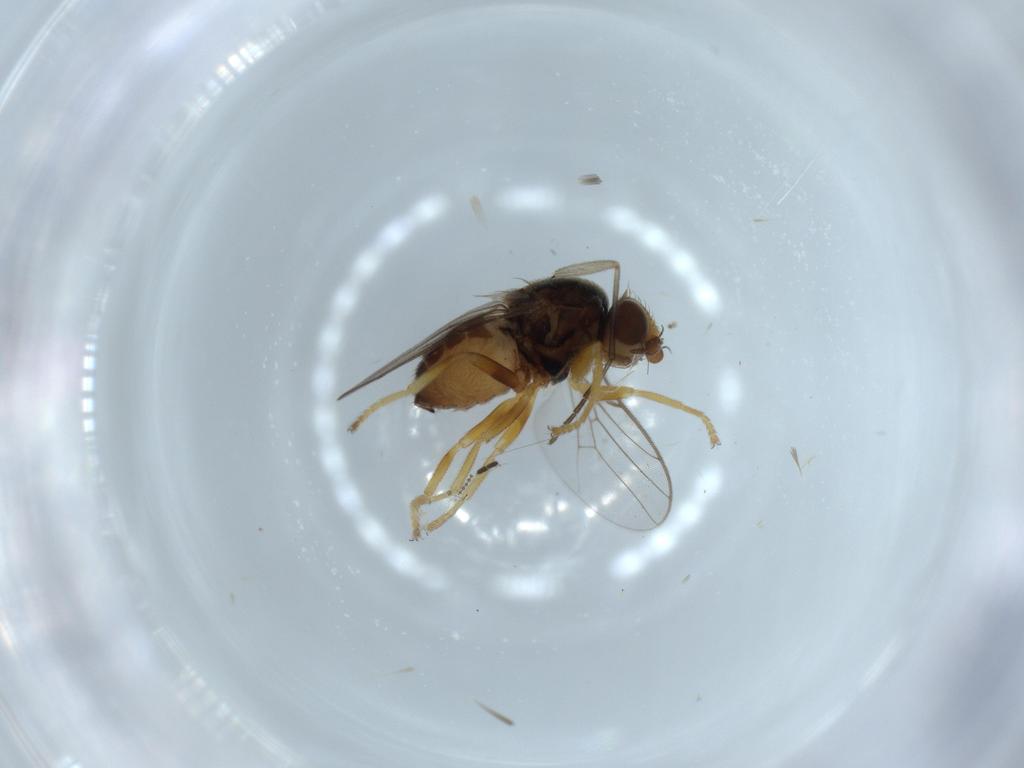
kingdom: Animalia
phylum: Arthropoda
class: Insecta
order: Diptera
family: Chloropidae
